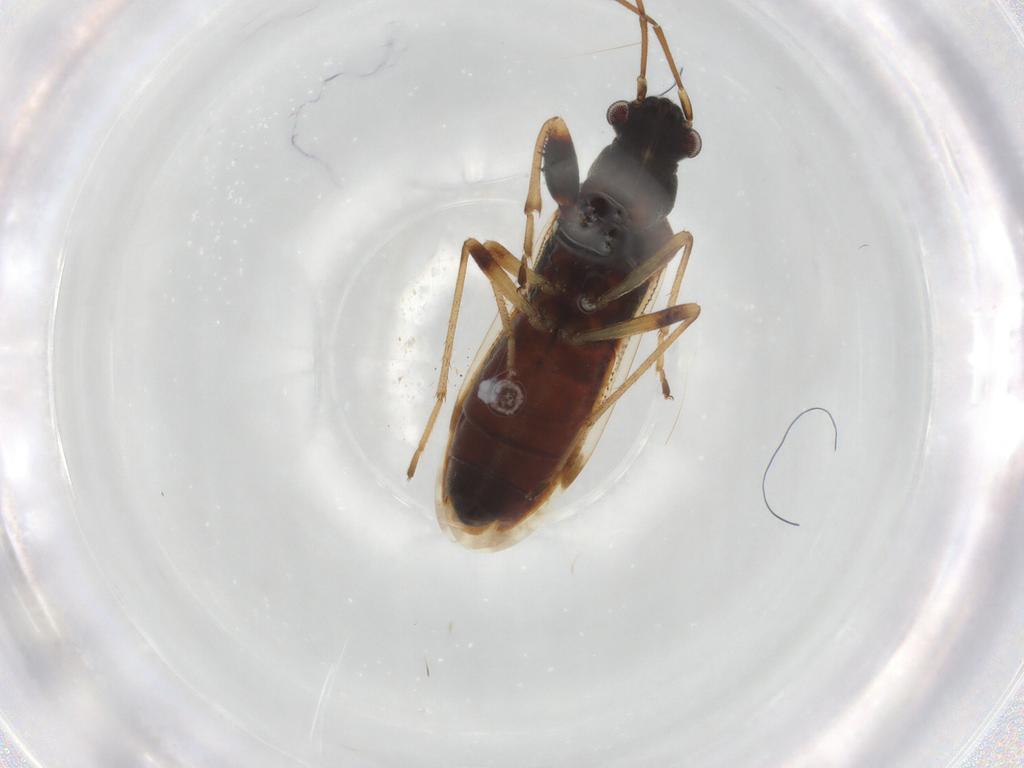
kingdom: Animalia
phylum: Arthropoda
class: Insecta
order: Hemiptera
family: Rhyparochromidae
